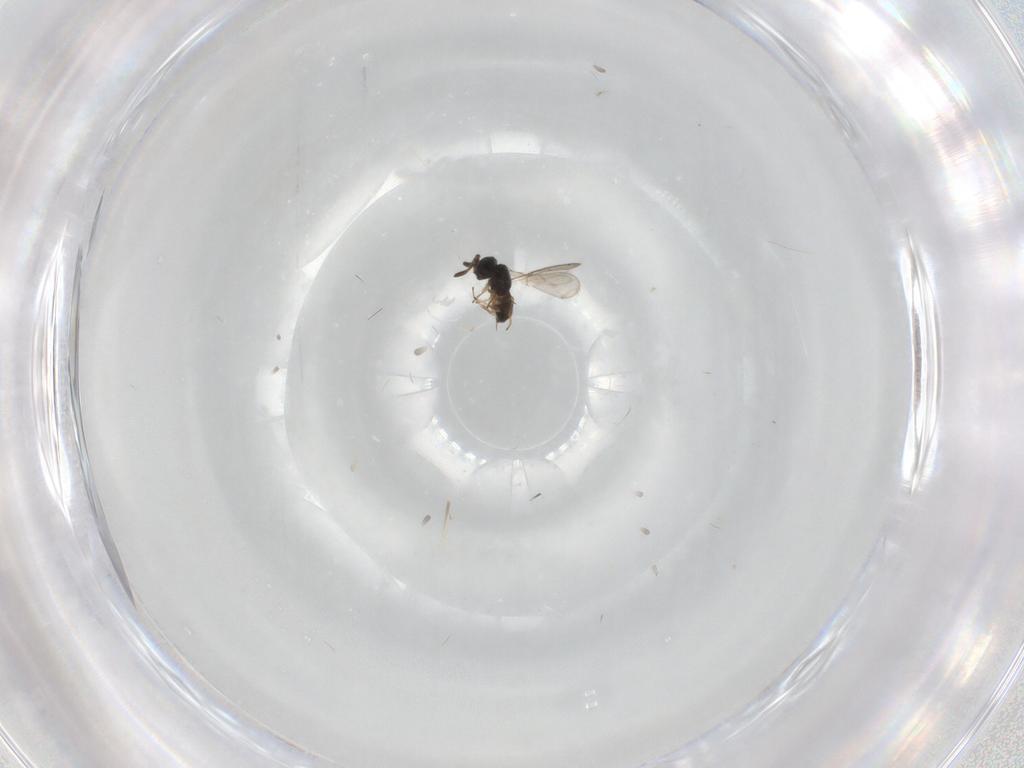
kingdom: Animalia
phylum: Arthropoda
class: Insecta
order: Hymenoptera
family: Scelionidae
